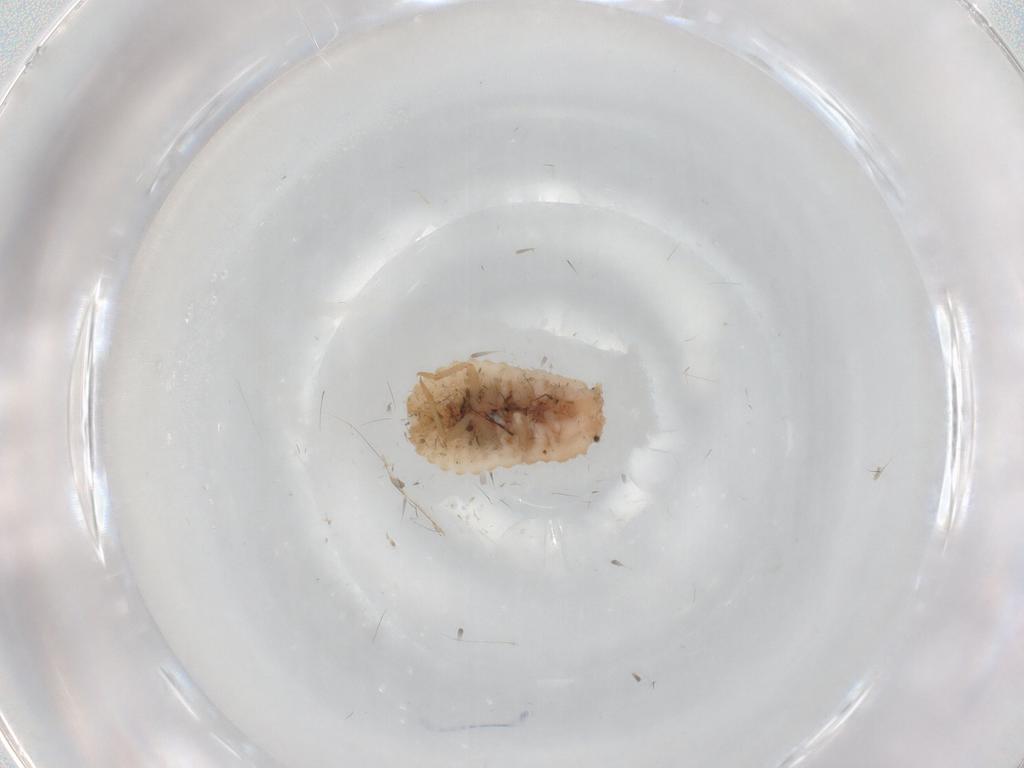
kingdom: Animalia
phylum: Arthropoda
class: Insecta
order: Hemiptera
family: Coccoidea_incertae_sedis
